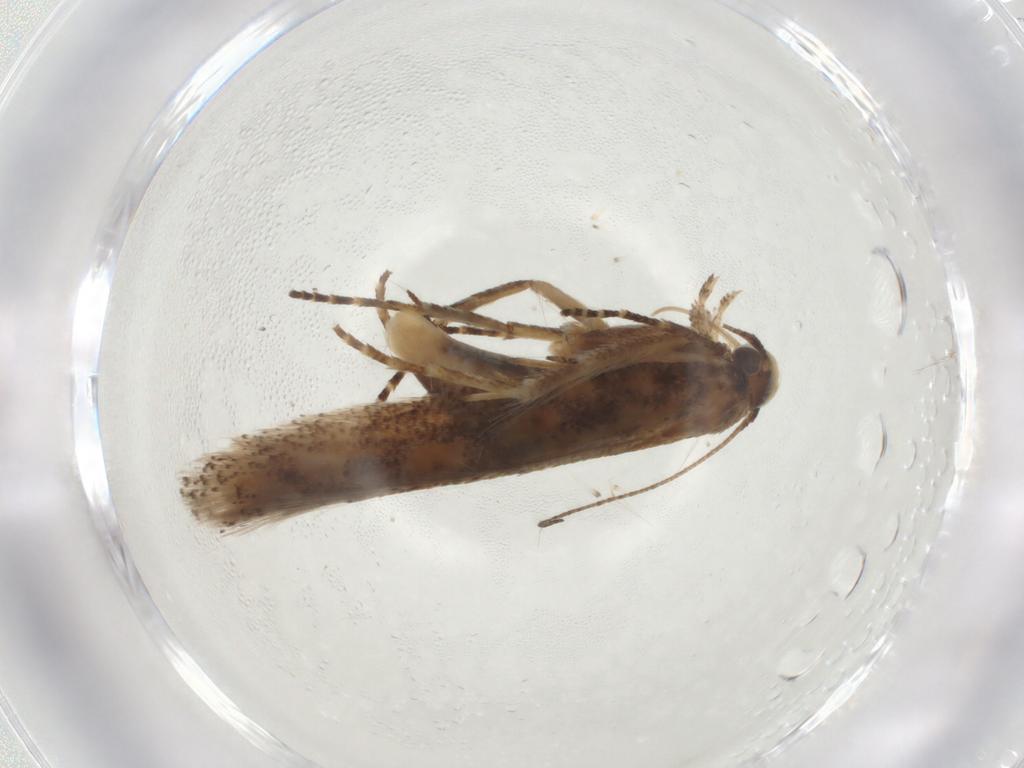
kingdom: Animalia
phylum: Arthropoda
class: Insecta
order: Lepidoptera
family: Gelechiidae
